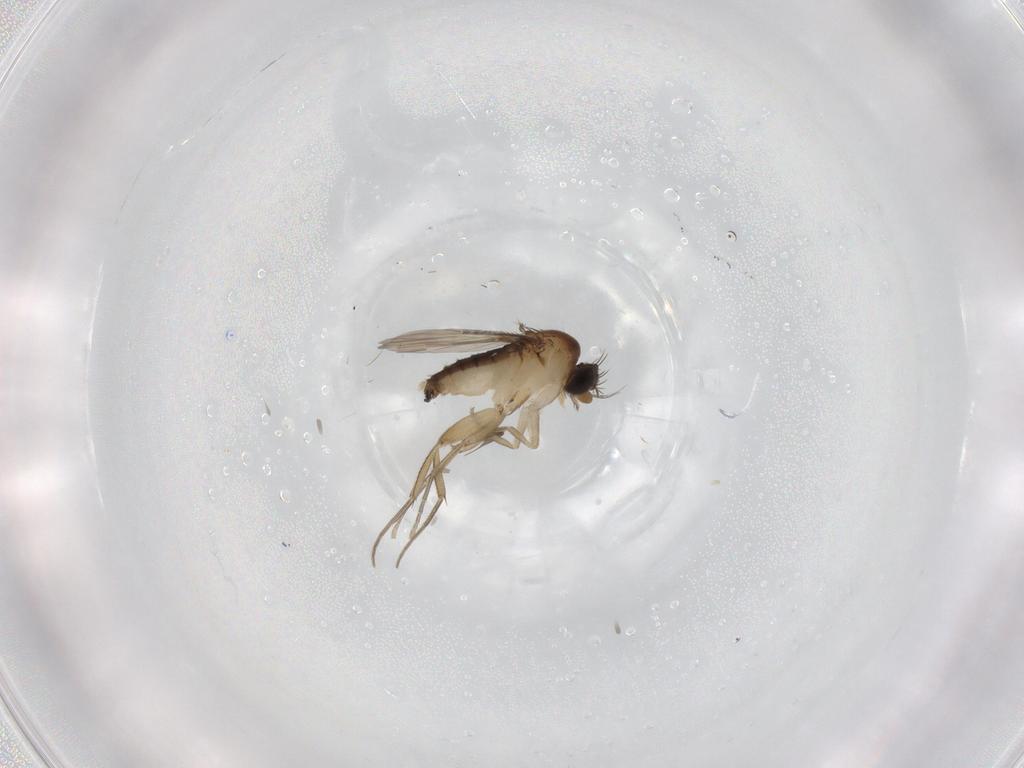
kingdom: Animalia
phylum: Arthropoda
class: Insecta
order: Diptera
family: Phoridae
